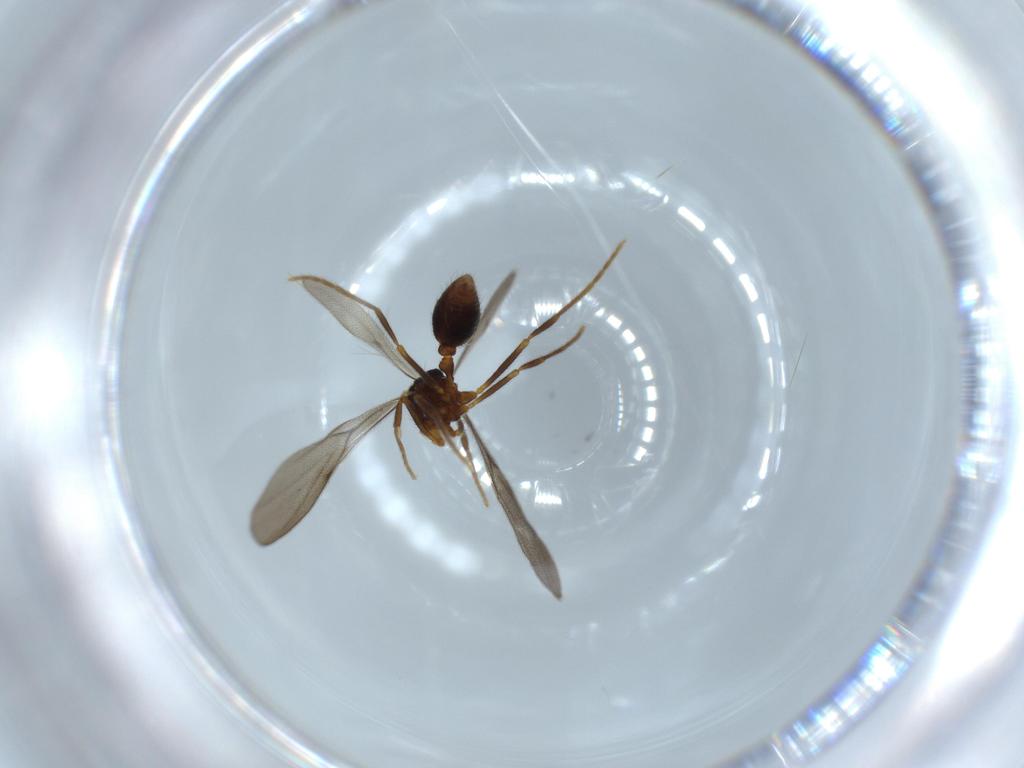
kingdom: Animalia
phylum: Arthropoda
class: Insecta
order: Hymenoptera
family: Formicidae
